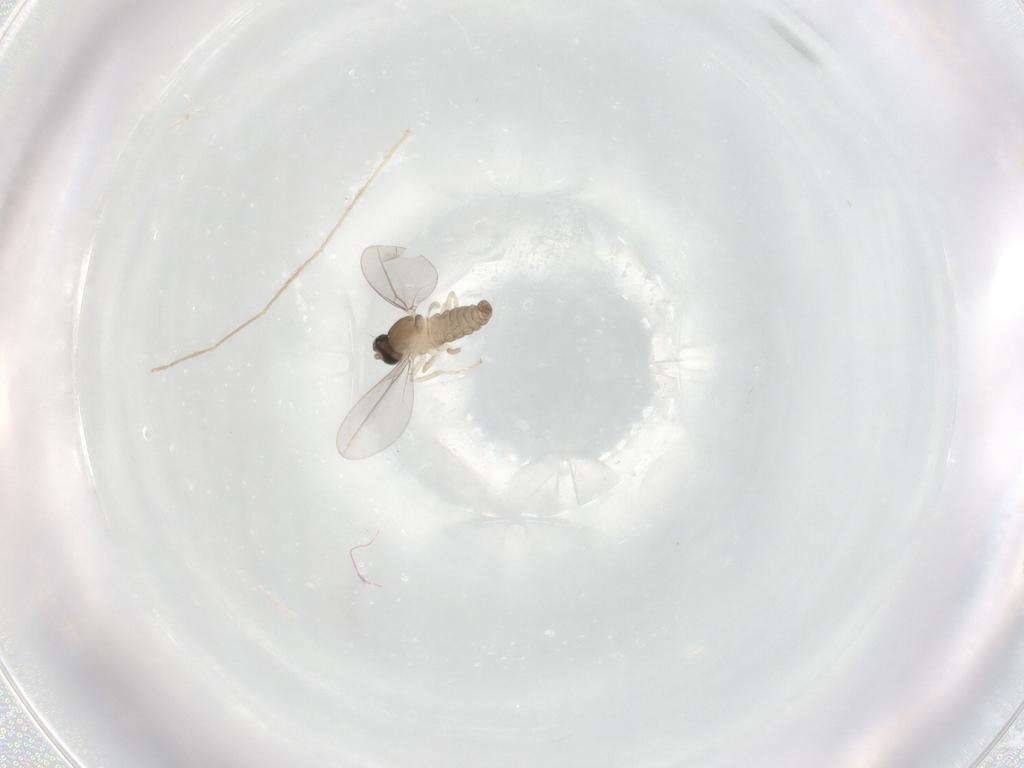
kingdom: Animalia
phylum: Arthropoda
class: Insecta
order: Diptera
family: Cecidomyiidae
